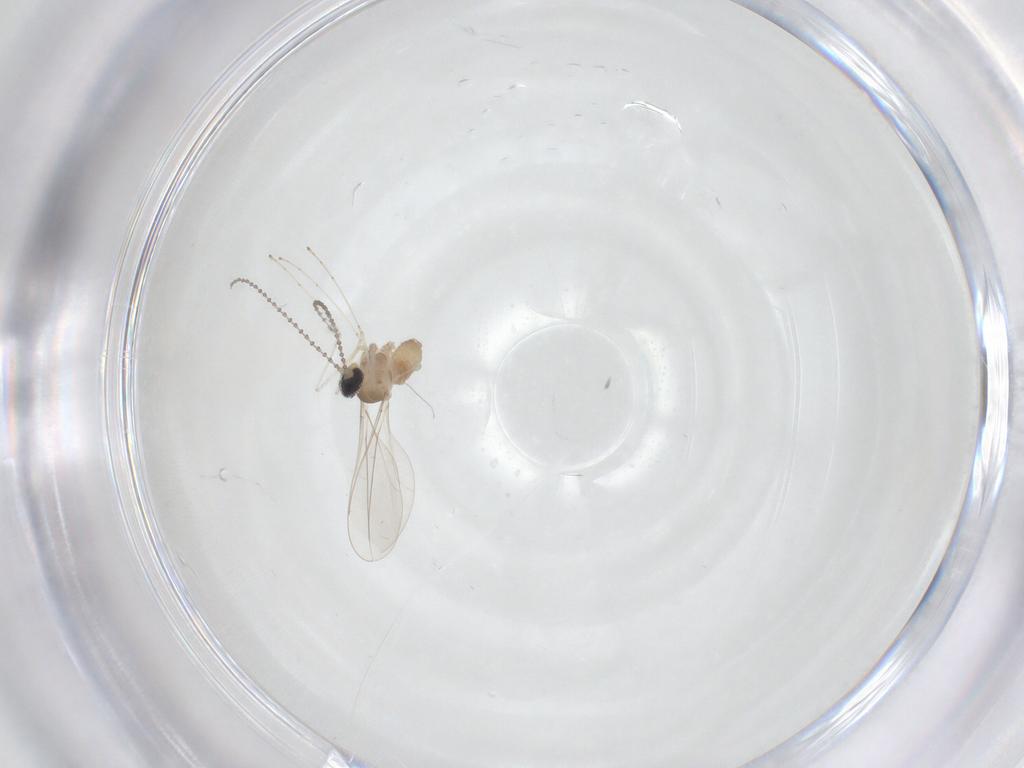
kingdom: Animalia
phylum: Arthropoda
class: Insecta
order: Diptera
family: Cecidomyiidae
